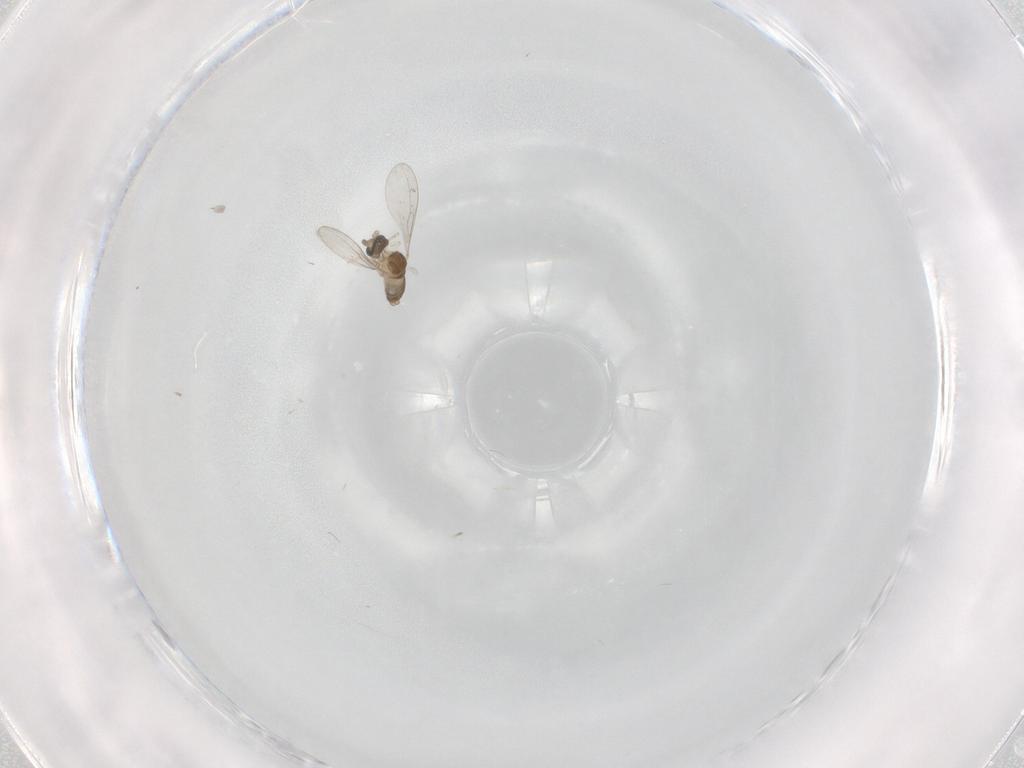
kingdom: Animalia
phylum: Arthropoda
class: Insecta
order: Diptera
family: Cecidomyiidae
